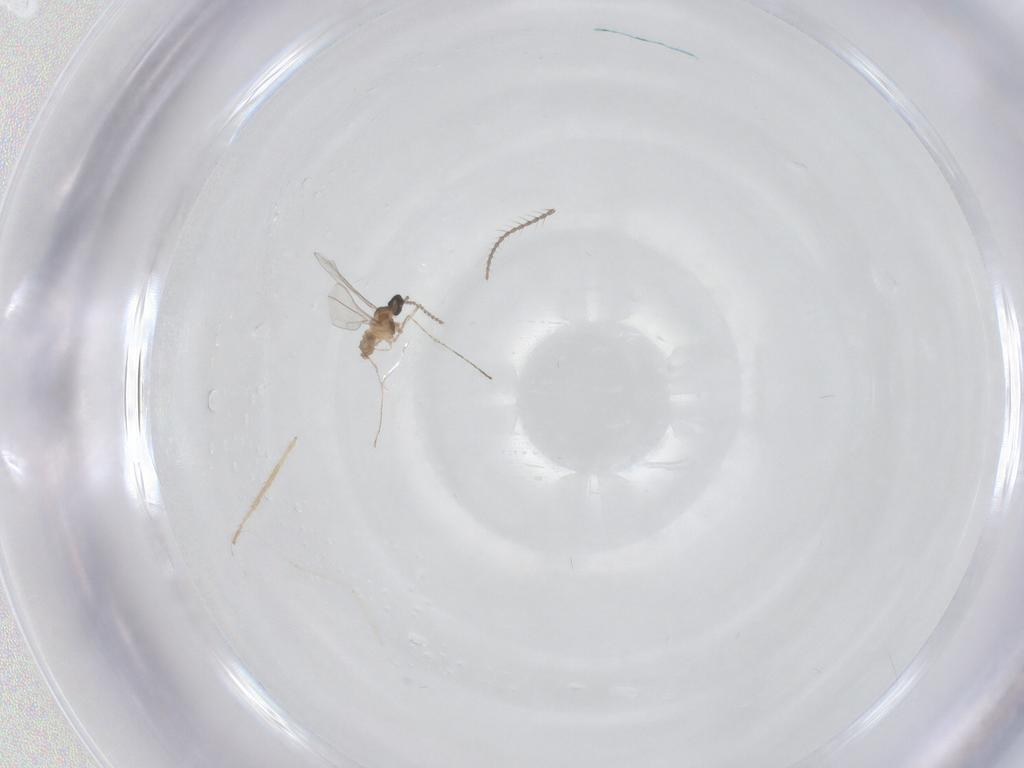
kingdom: Animalia
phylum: Arthropoda
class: Insecta
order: Diptera
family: Limoniidae
